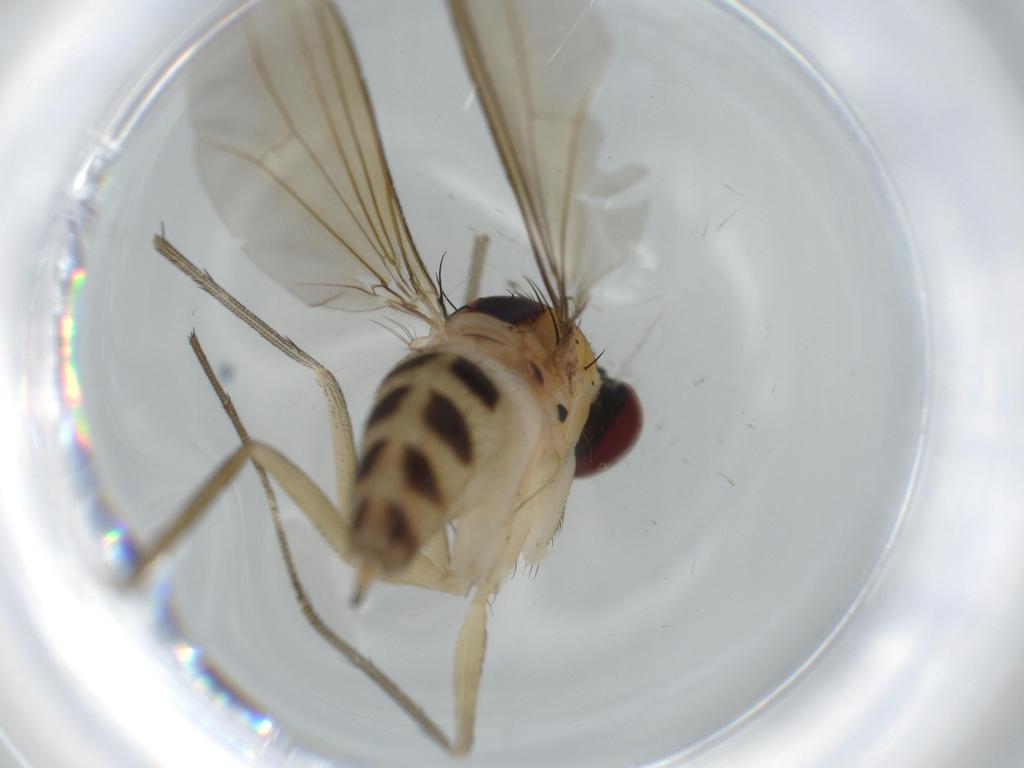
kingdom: Animalia
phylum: Arthropoda
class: Insecta
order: Diptera
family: Dolichopodidae
